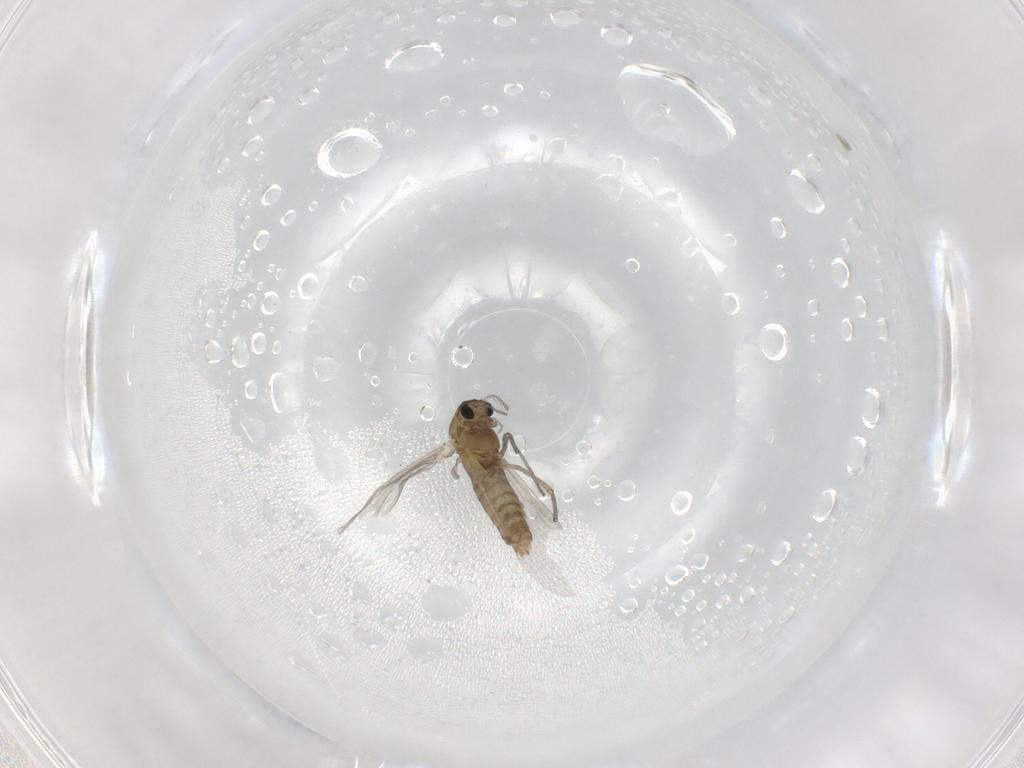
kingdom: Animalia
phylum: Arthropoda
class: Insecta
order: Diptera
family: Chironomidae
